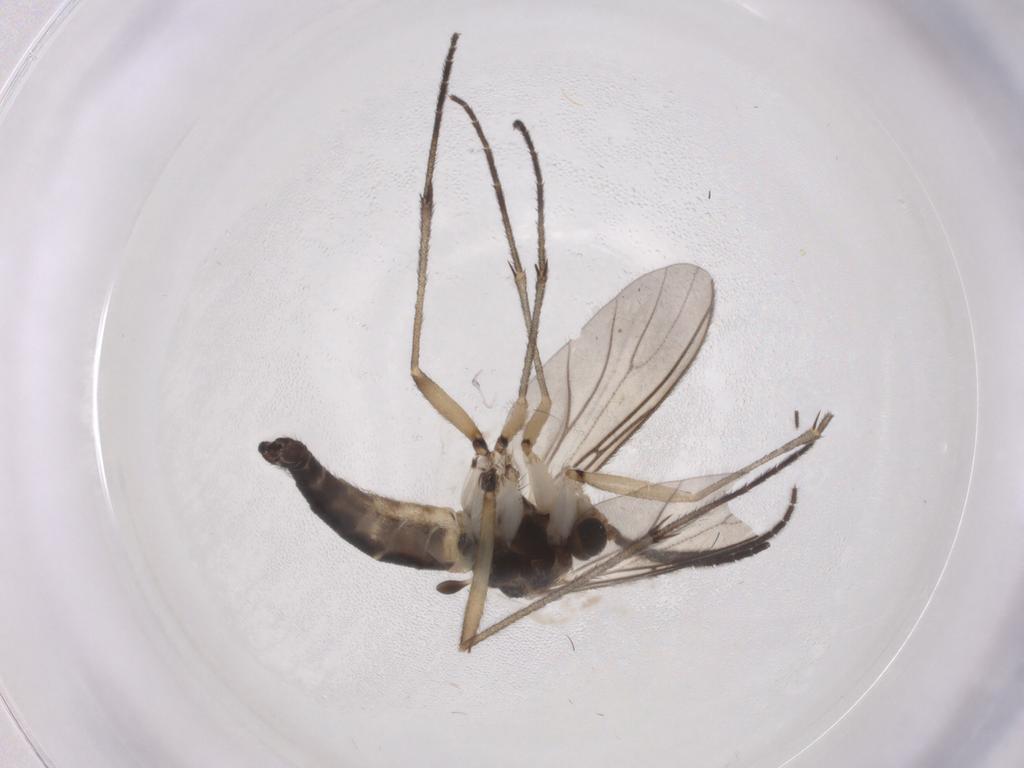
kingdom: Animalia
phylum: Arthropoda
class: Insecta
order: Diptera
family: Sciaridae
